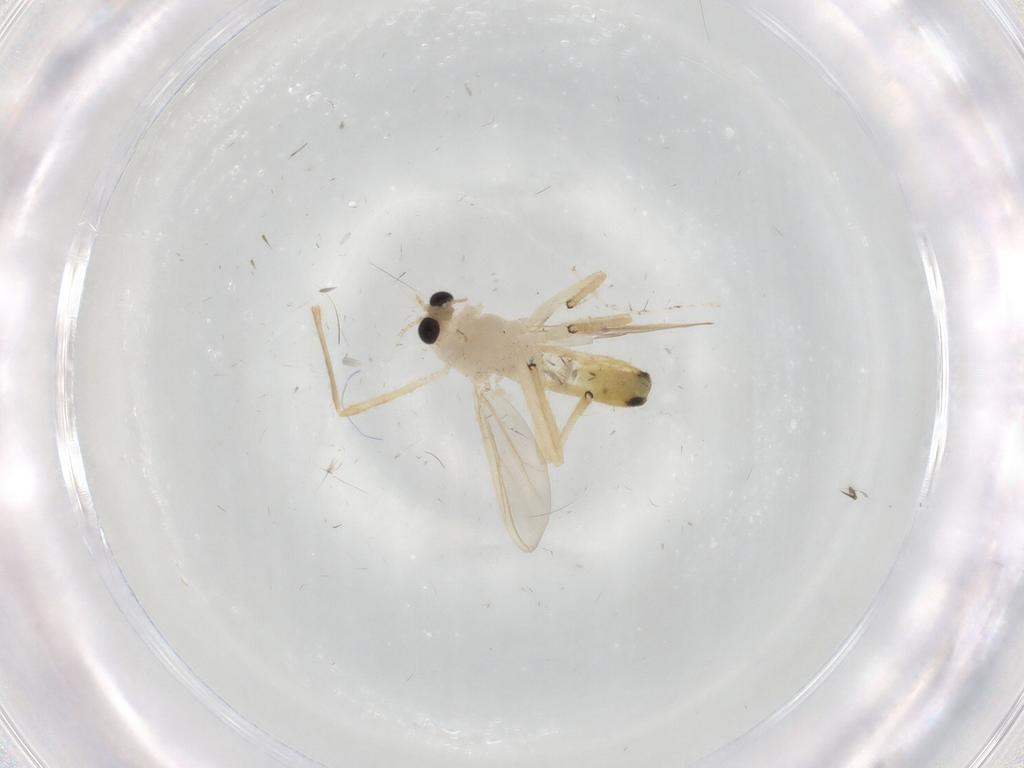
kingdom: Animalia
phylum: Arthropoda
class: Insecta
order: Diptera
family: Chironomidae
